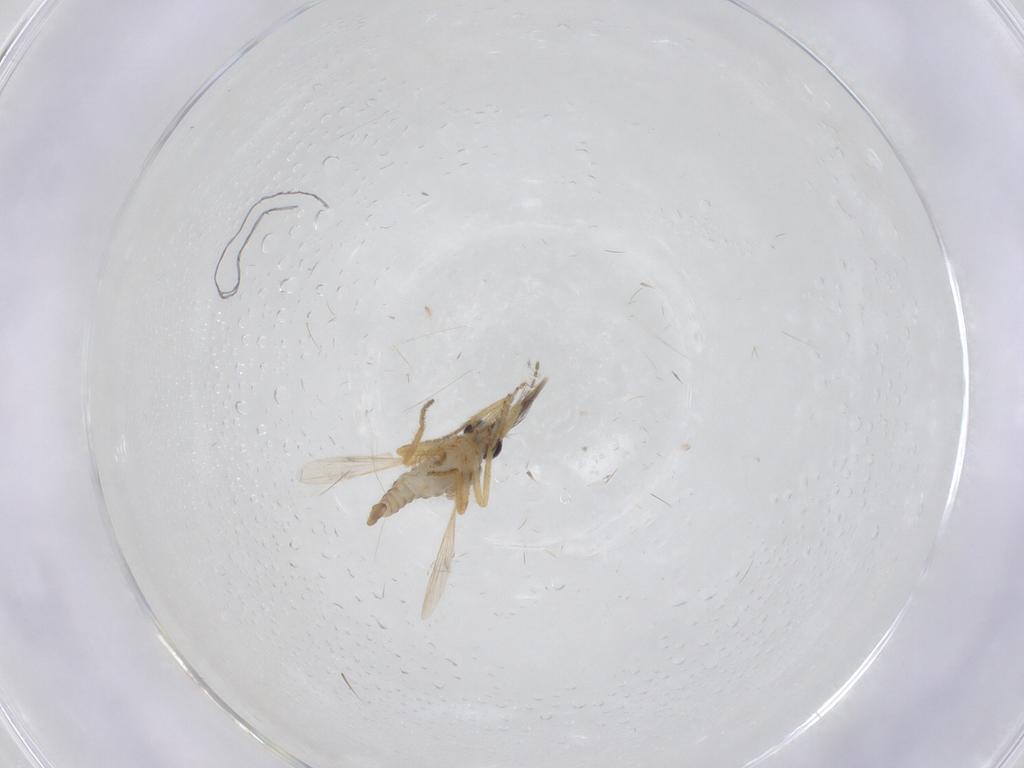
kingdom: Animalia
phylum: Arthropoda
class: Insecta
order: Diptera
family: Ceratopogonidae
